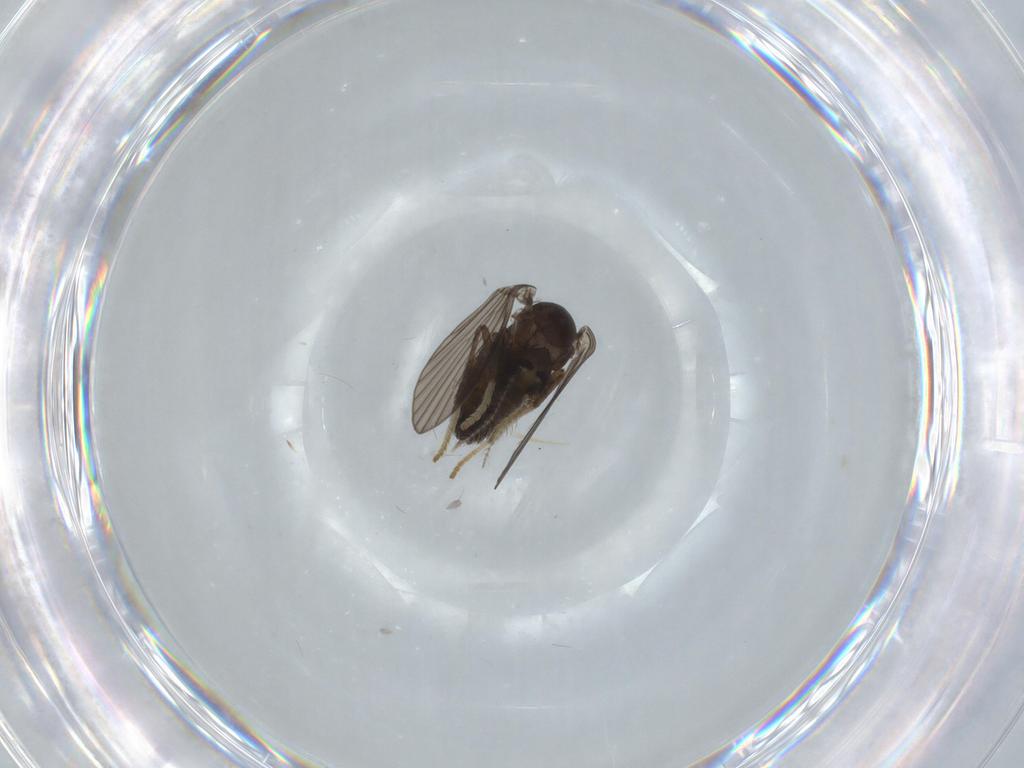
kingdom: Animalia
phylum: Arthropoda
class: Insecta
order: Diptera
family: Psychodidae
